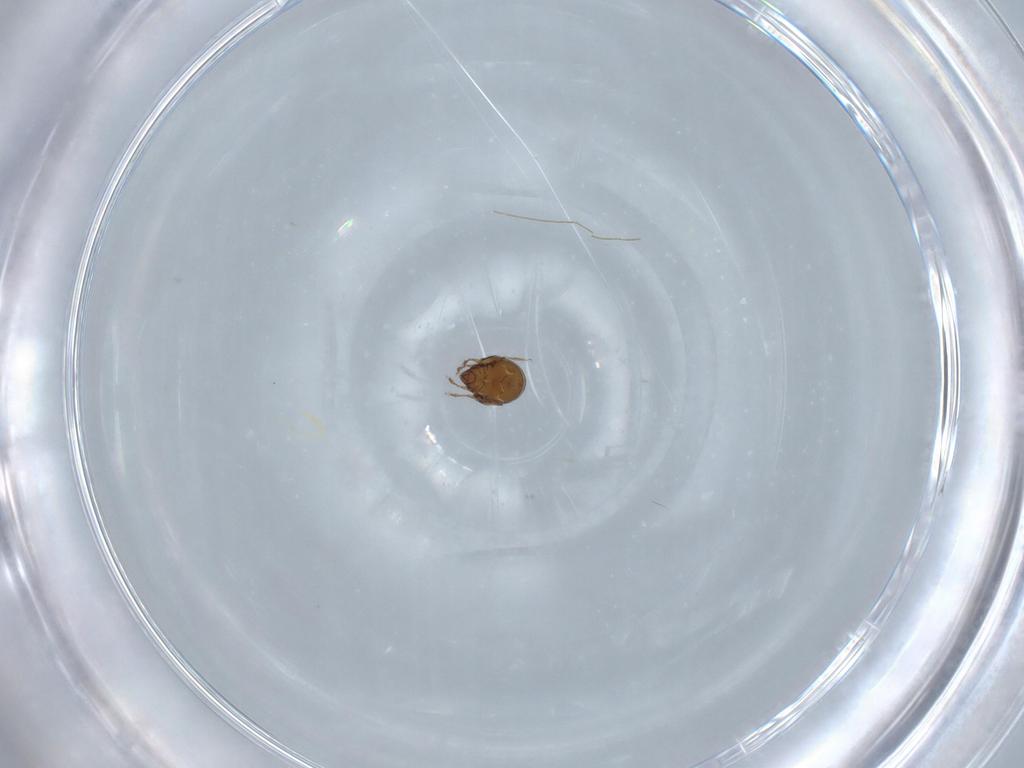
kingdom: Animalia
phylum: Arthropoda
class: Arachnida
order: Trombidiformes
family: Anystidae
